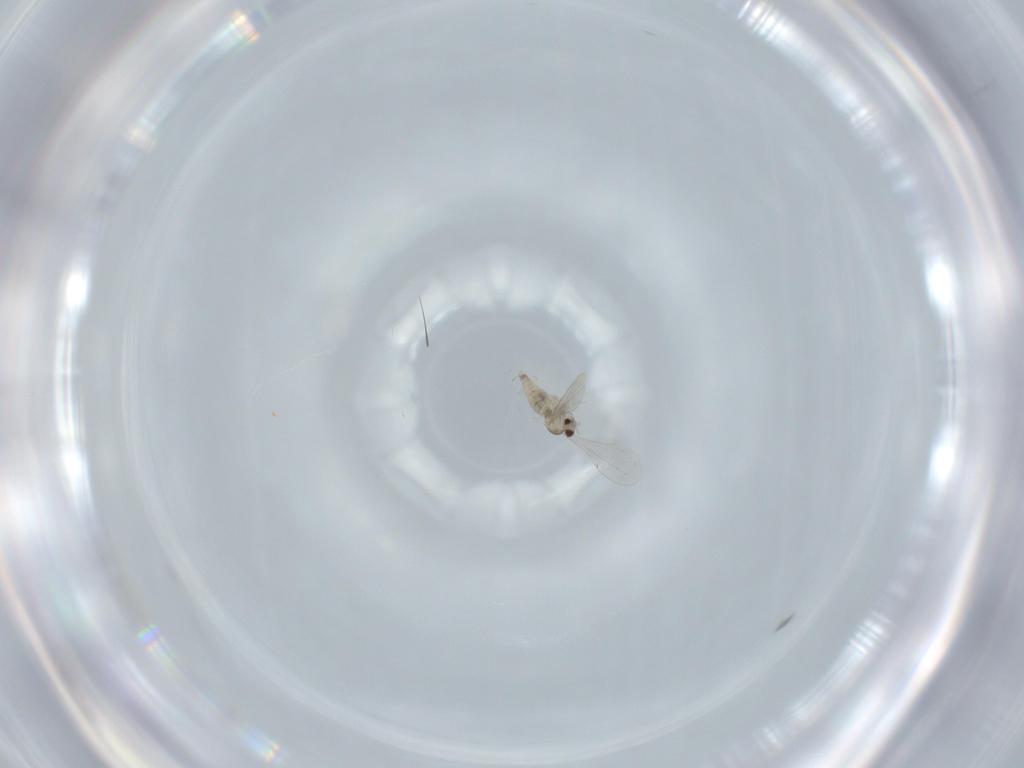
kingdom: Animalia
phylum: Arthropoda
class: Insecta
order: Diptera
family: Cecidomyiidae
